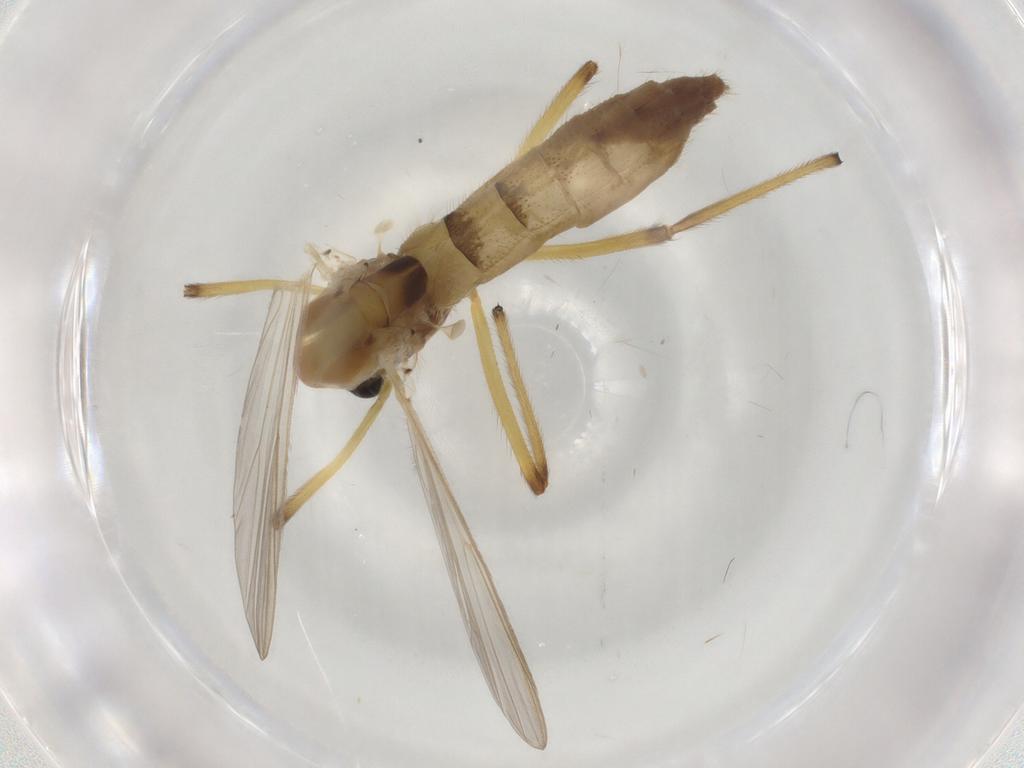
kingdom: Animalia
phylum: Arthropoda
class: Insecta
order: Diptera
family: Chironomidae
